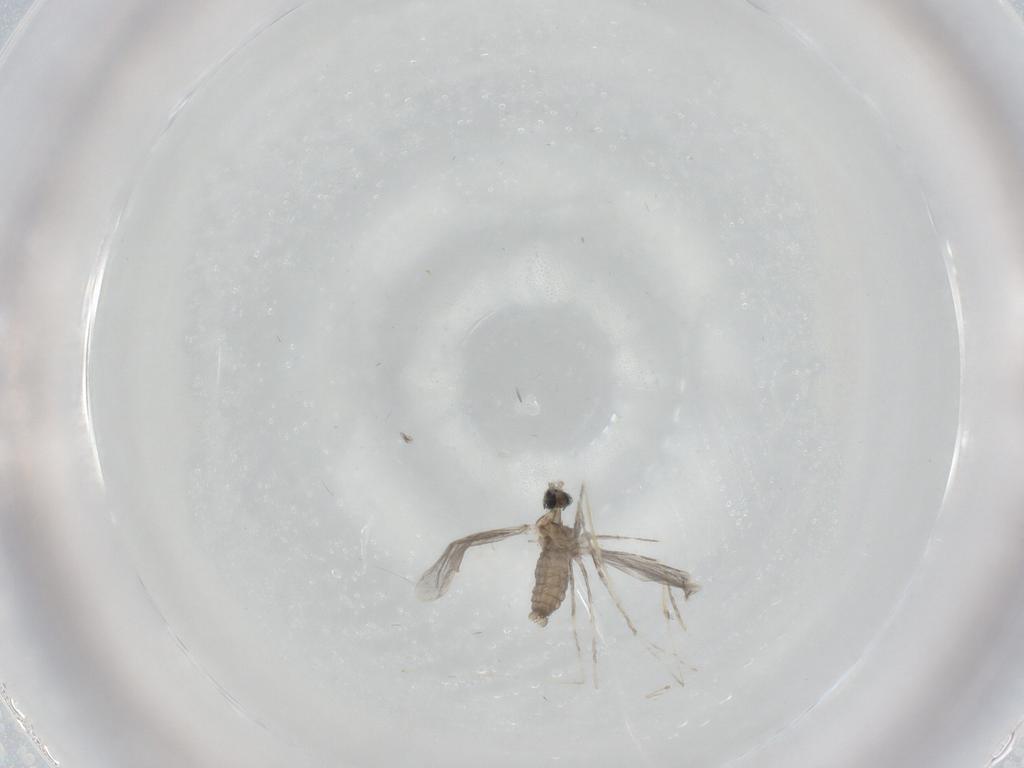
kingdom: Animalia
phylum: Arthropoda
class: Insecta
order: Diptera
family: Cecidomyiidae
